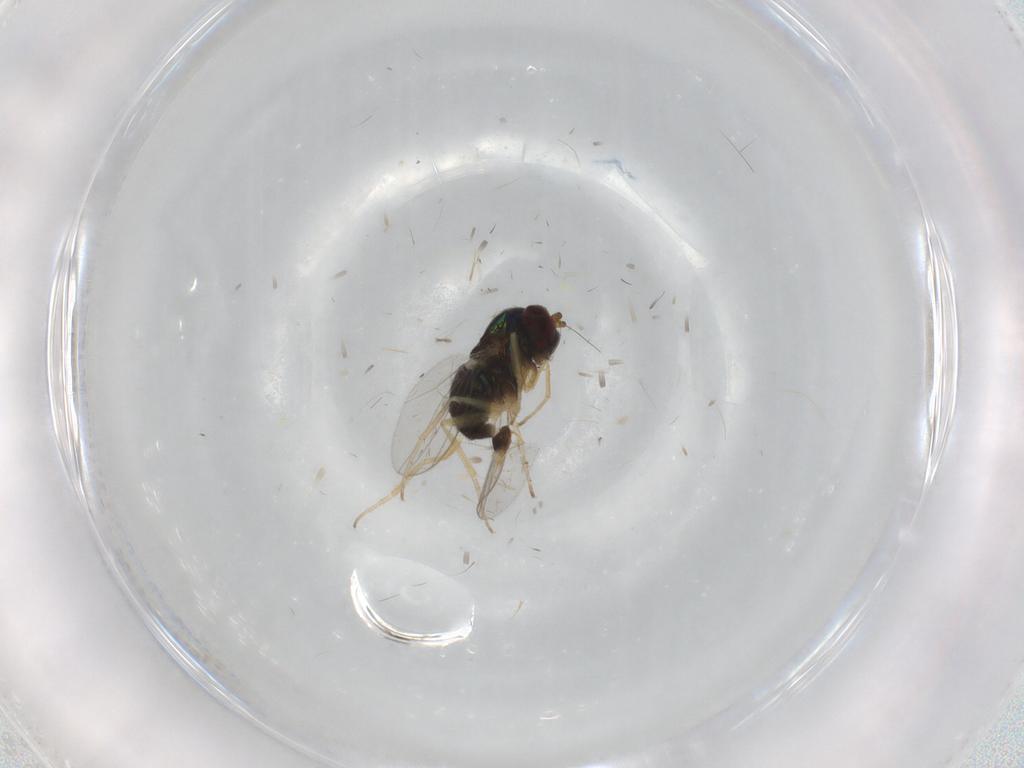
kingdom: Animalia
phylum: Arthropoda
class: Insecta
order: Diptera
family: Dolichopodidae
